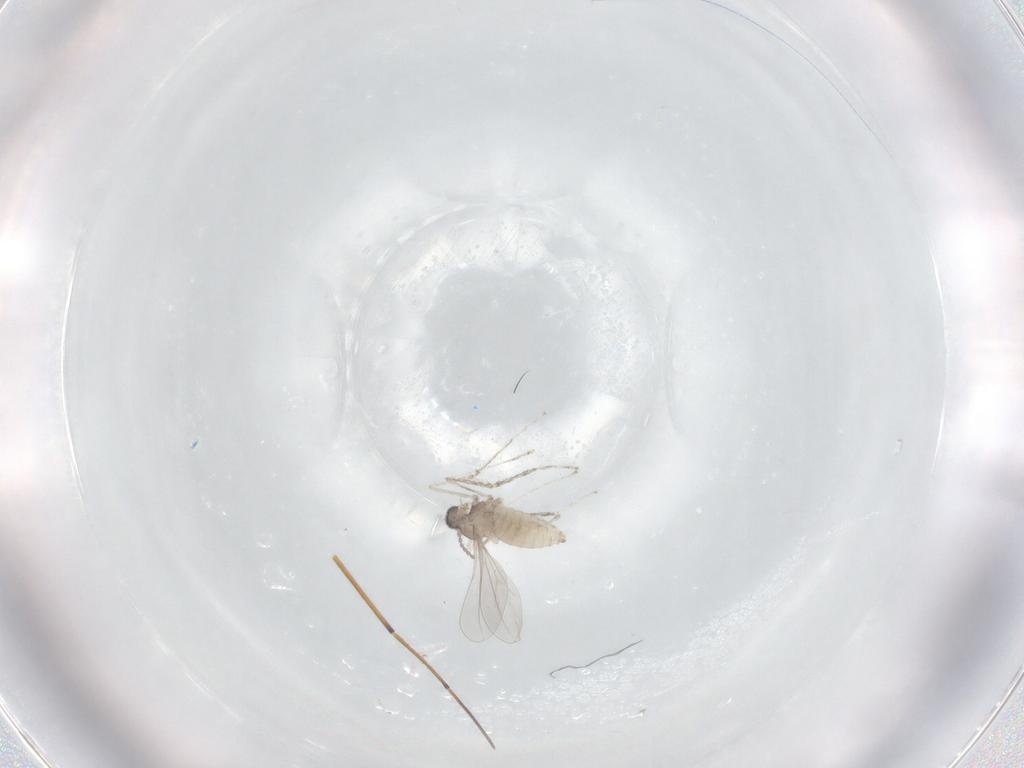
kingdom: Animalia
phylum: Arthropoda
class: Insecta
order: Diptera
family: Cecidomyiidae
